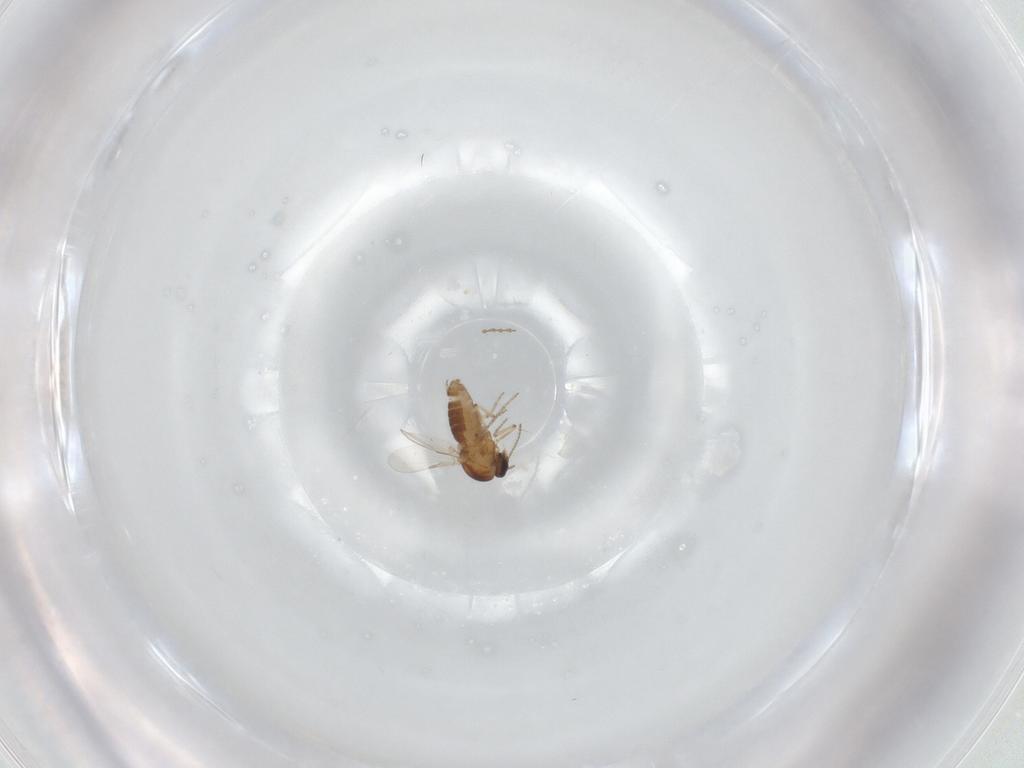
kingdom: Animalia
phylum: Arthropoda
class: Insecta
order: Diptera
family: Ceratopogonidae
